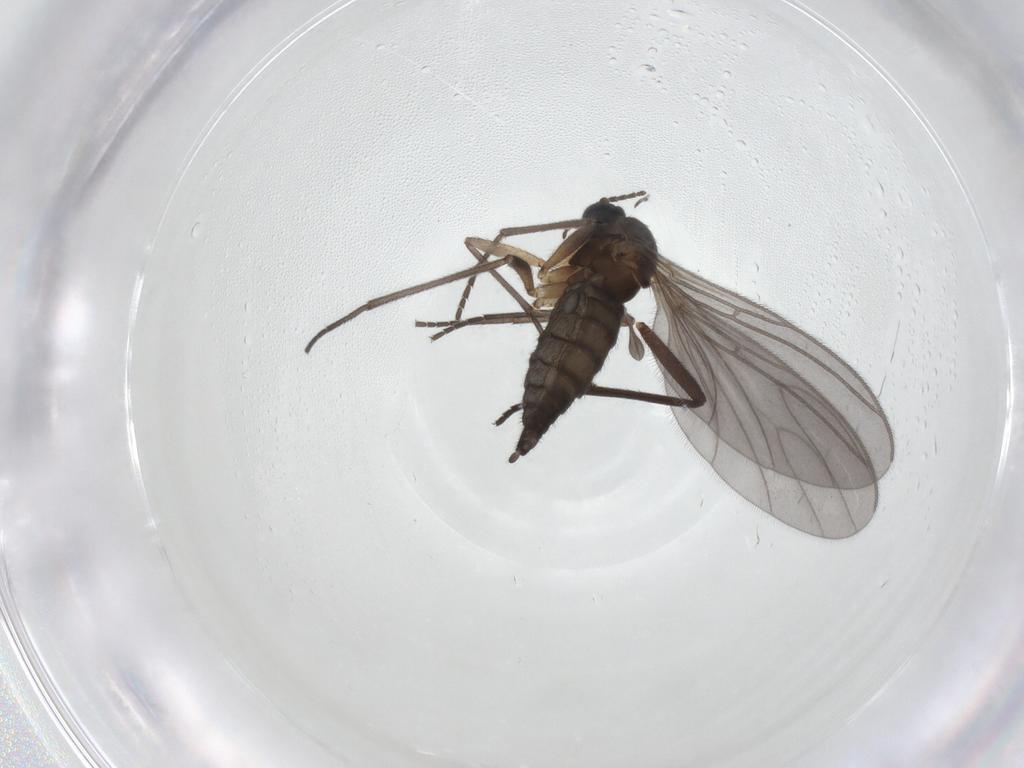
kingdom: Animalia
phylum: Arthropoda
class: Insecta
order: Diptera
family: Sciaridae
